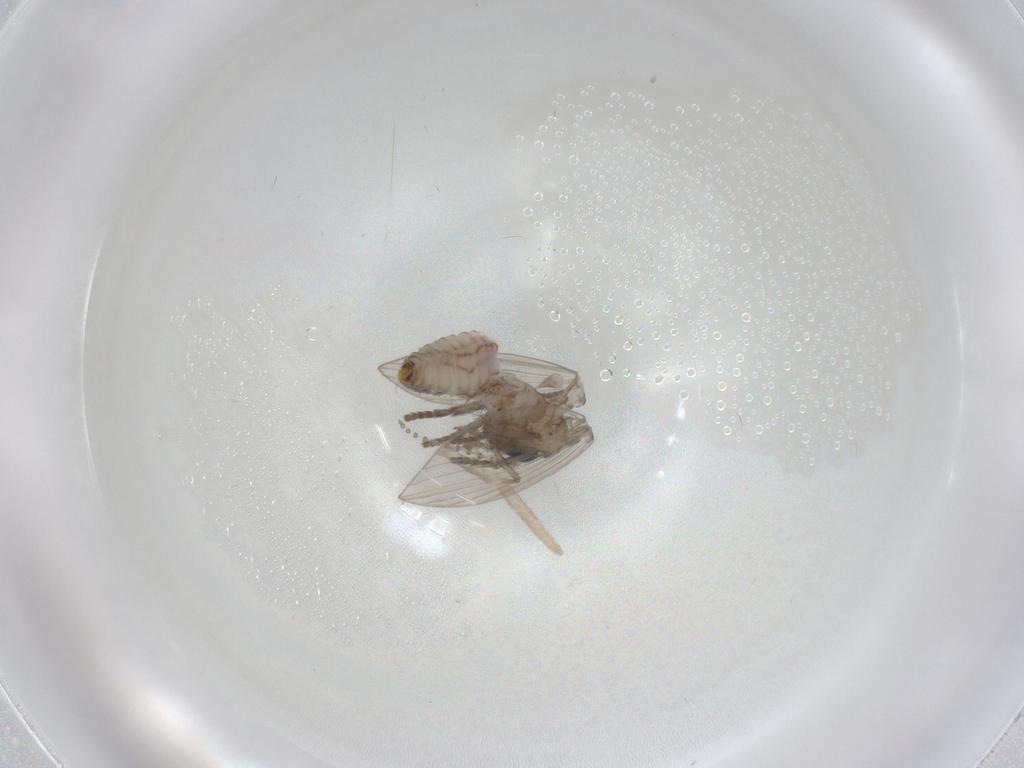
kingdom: Animalia
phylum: Arthropoda
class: Insecta
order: Diptera
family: Psychodidae
